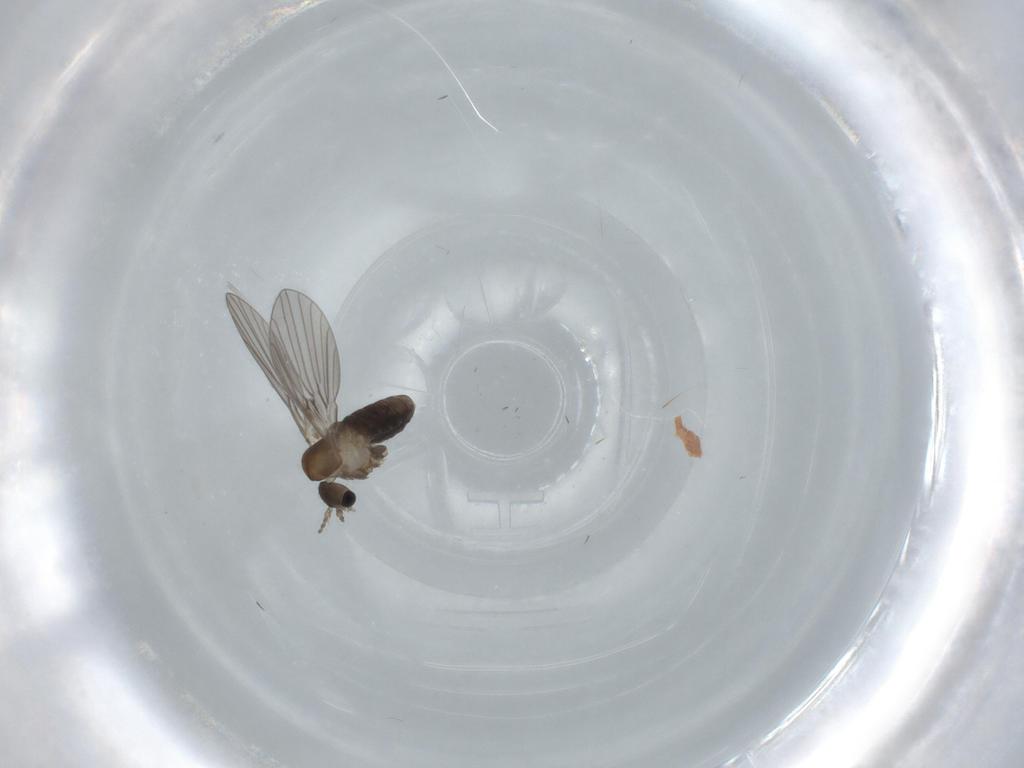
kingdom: Animalia
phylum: Arthropoda
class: Insecta
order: Diptera
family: Psychodidae
